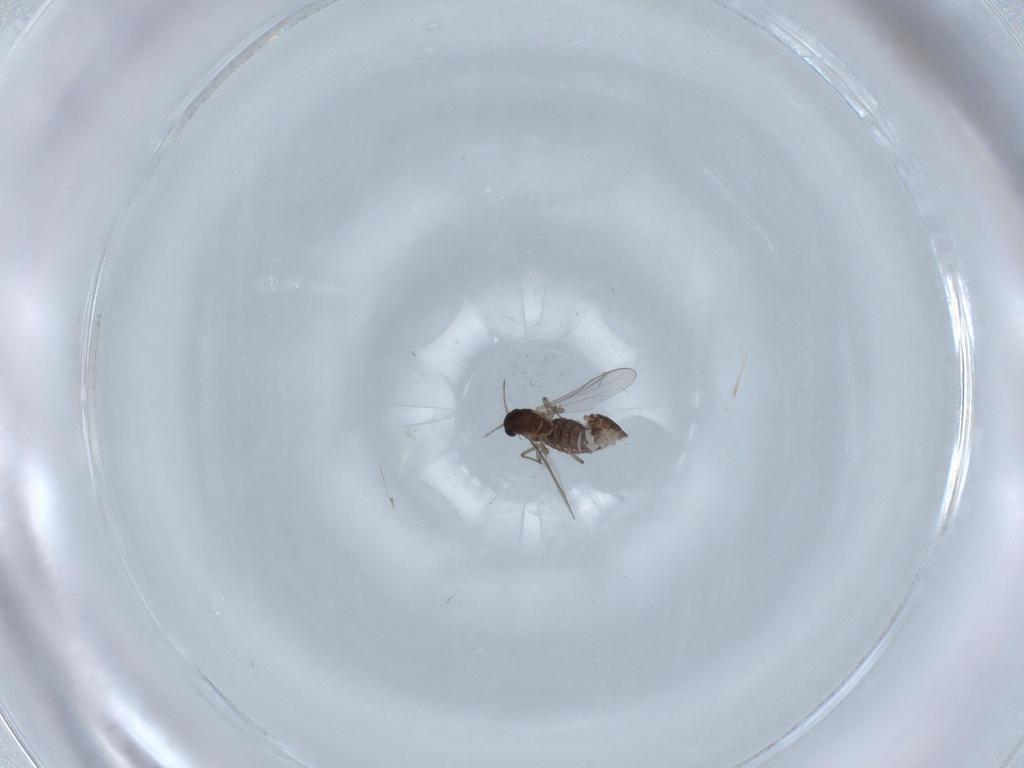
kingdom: Animalia
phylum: Arthropoda
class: Insecta
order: Diptera
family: Chironomidae
